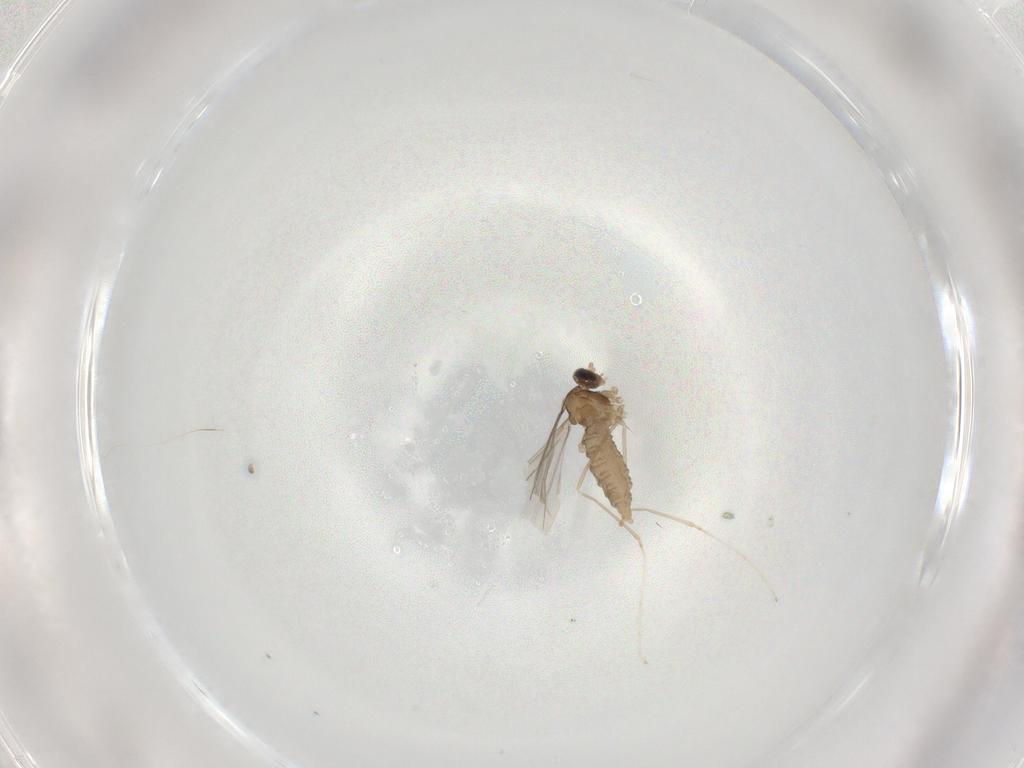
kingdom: Animalia
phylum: Arthropoda
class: Insecta
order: Diptera
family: Cecidomyiidae
